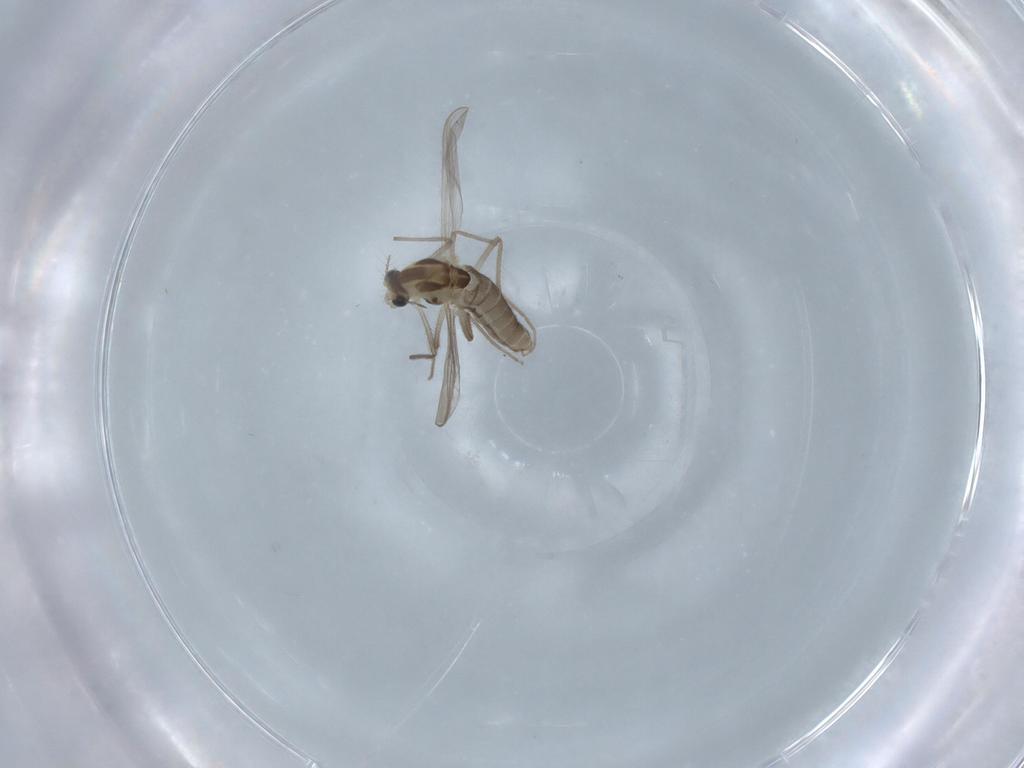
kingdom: Animalia
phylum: Arthropoda
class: Insecta
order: Diptera
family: Chironomidae
